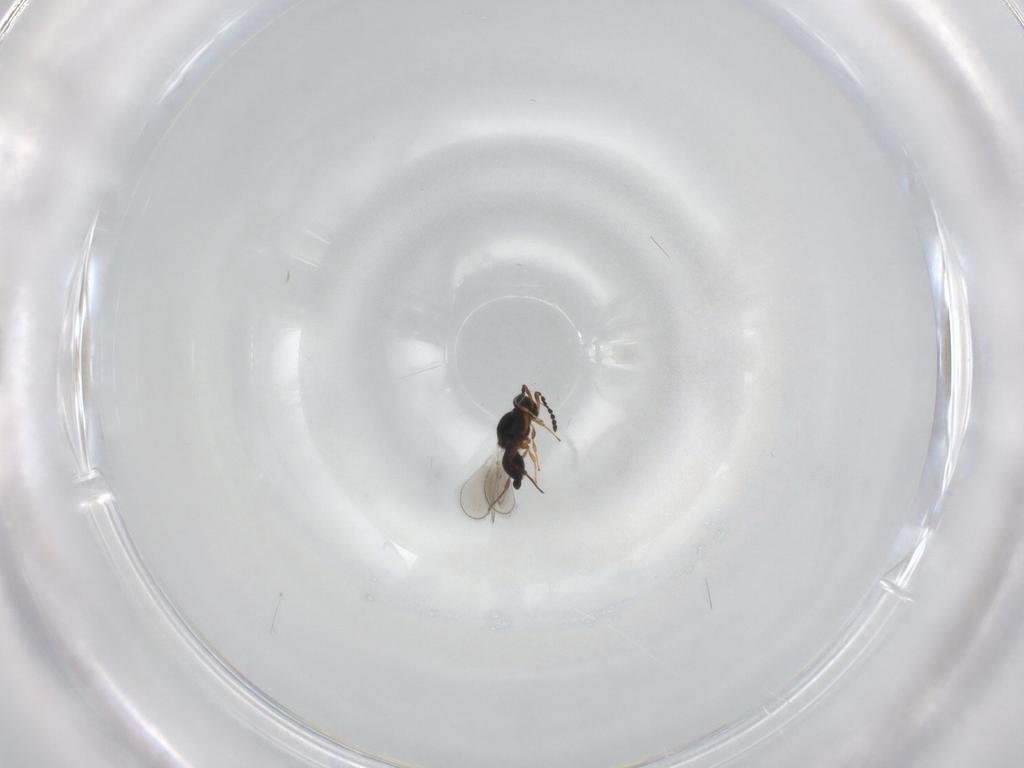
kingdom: Animalia
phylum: Arthropoda
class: Insecta
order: Hymenoptera
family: Platygastridae
